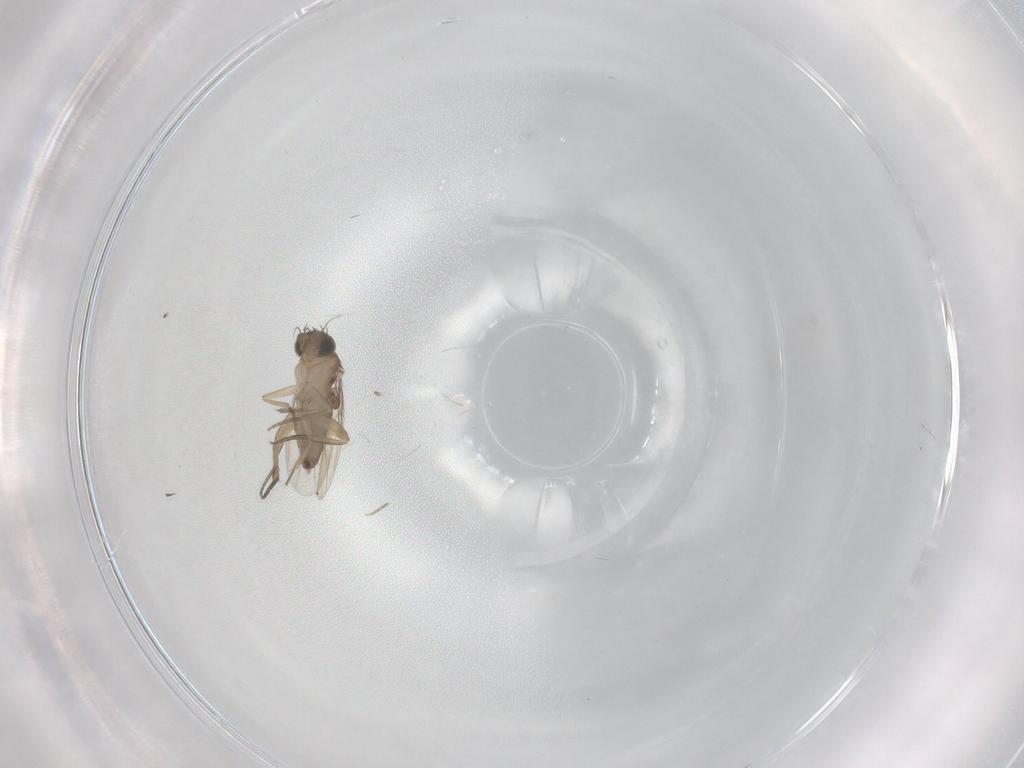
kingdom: Animalia
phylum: Arthropoda
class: Insecta
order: Diptera
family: Phoridae
